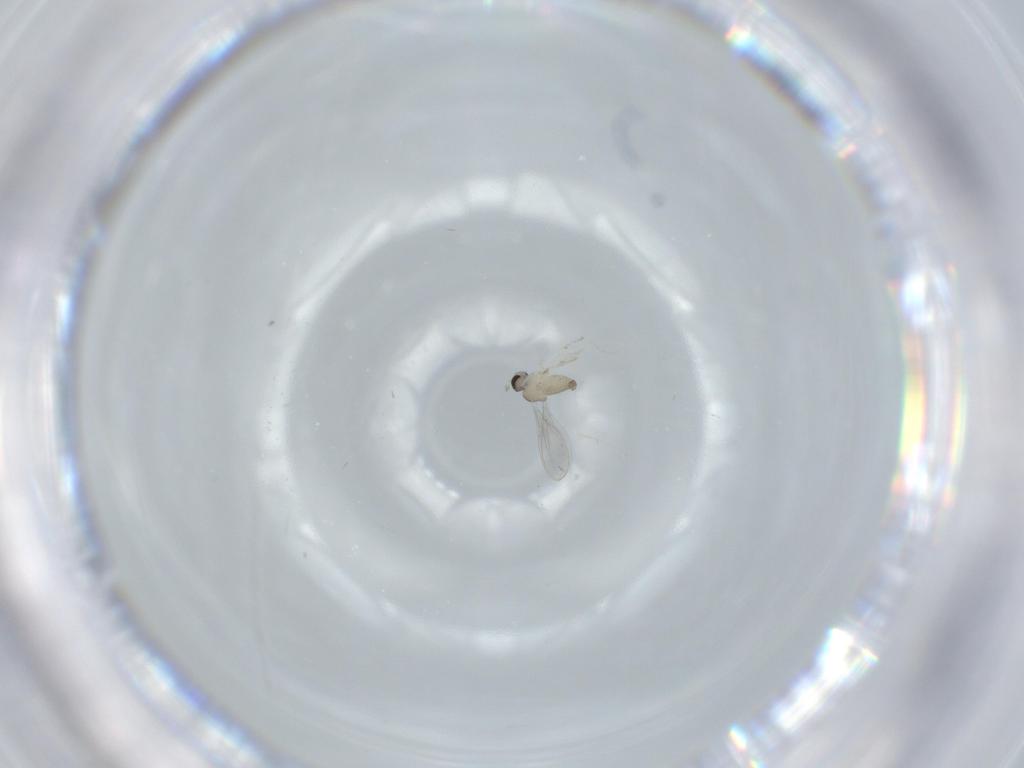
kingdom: Animalia
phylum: Arthropoda
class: Insecta
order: Diptera
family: Cecidomyiidae
